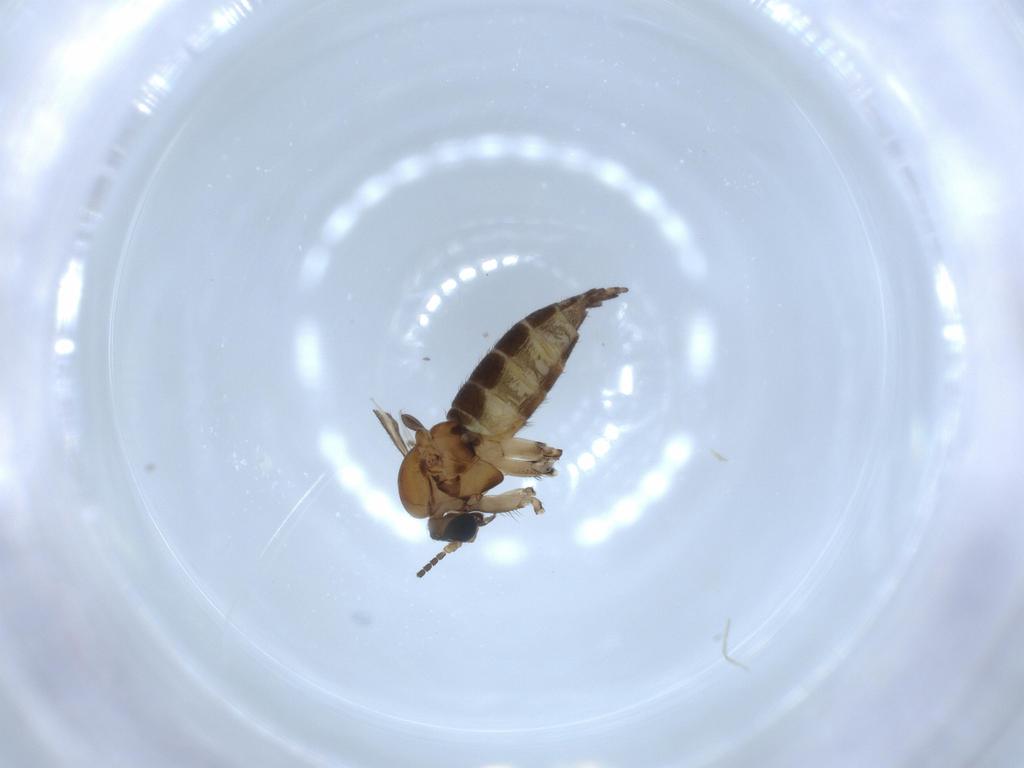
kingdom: Animalia
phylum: Arthropoda
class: Insecta
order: Diptera
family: Sciaridae
